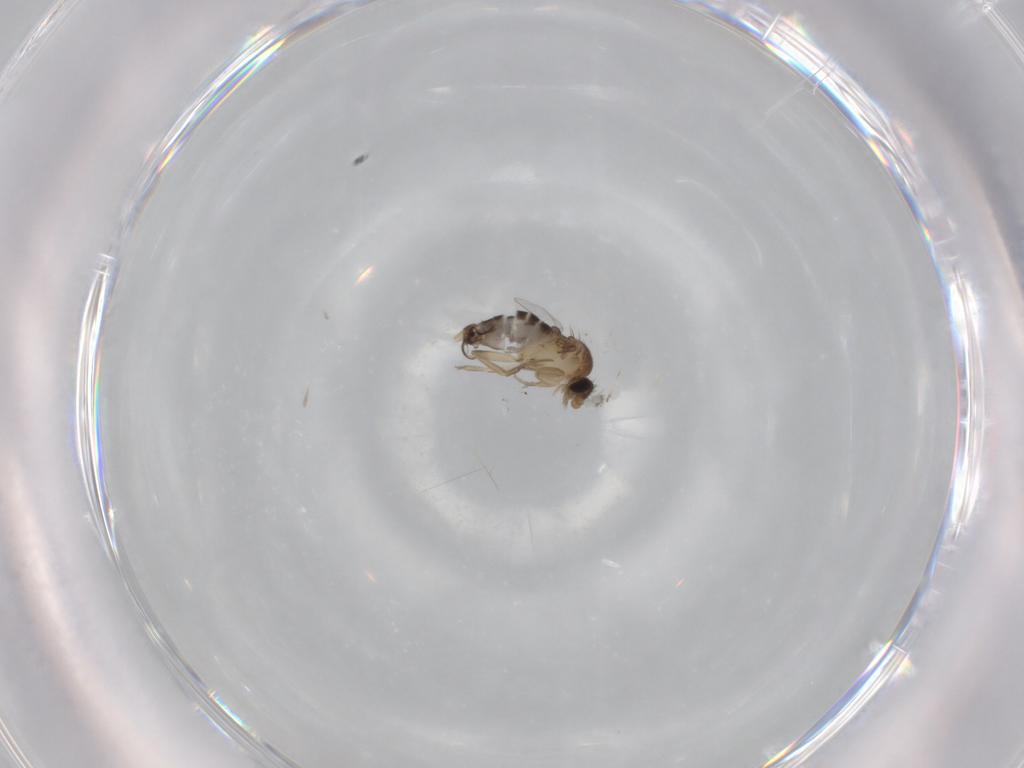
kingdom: Animalia
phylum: Arthropoda
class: Insecta
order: Diptera
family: Phoridae
